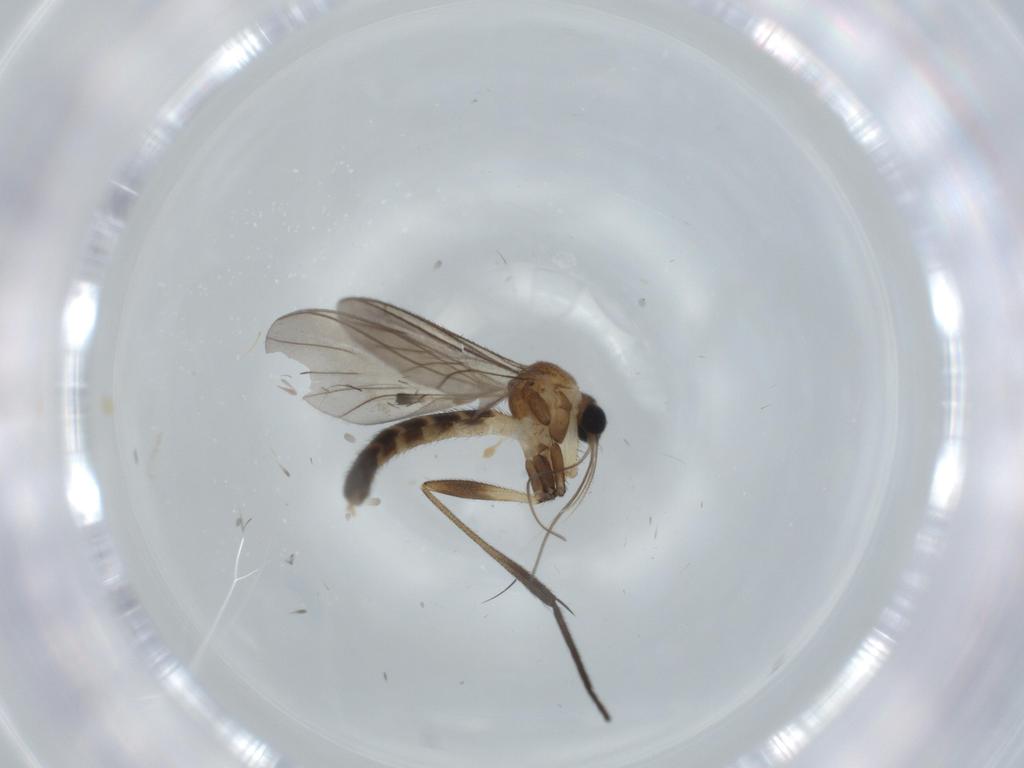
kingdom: Animalia
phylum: Arthropoda
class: Insecta
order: Diptera
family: Keroplatidae
